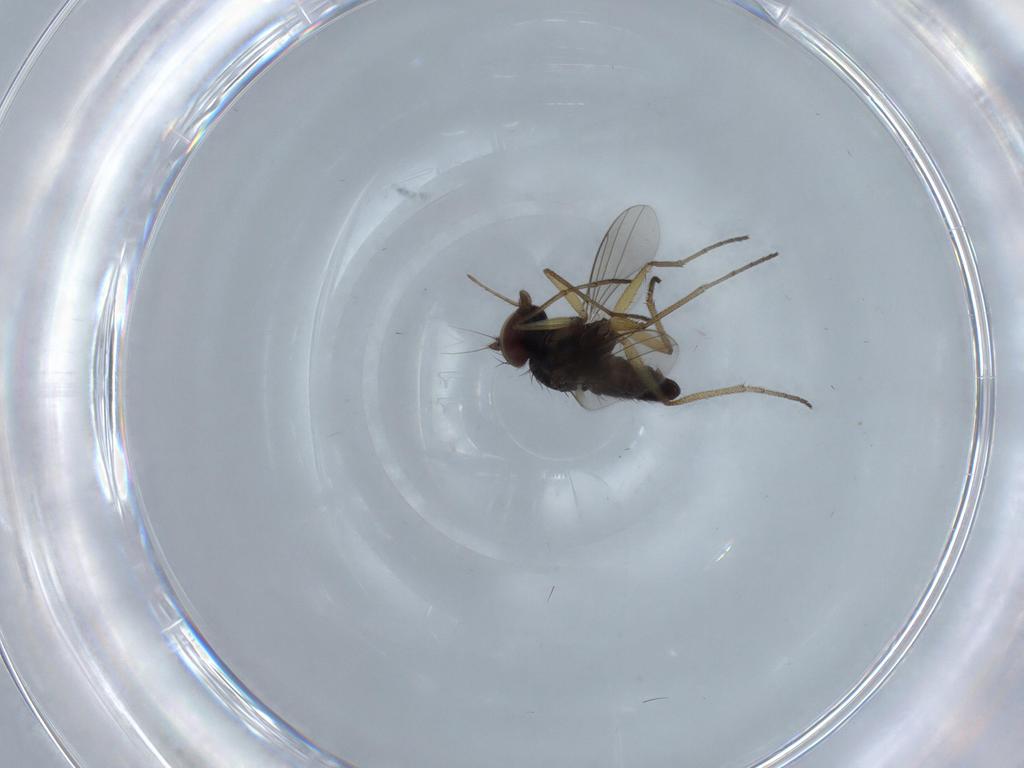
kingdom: Animalia
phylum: Arthropoda
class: Insecta
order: Diptera
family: Dolichopodidae
